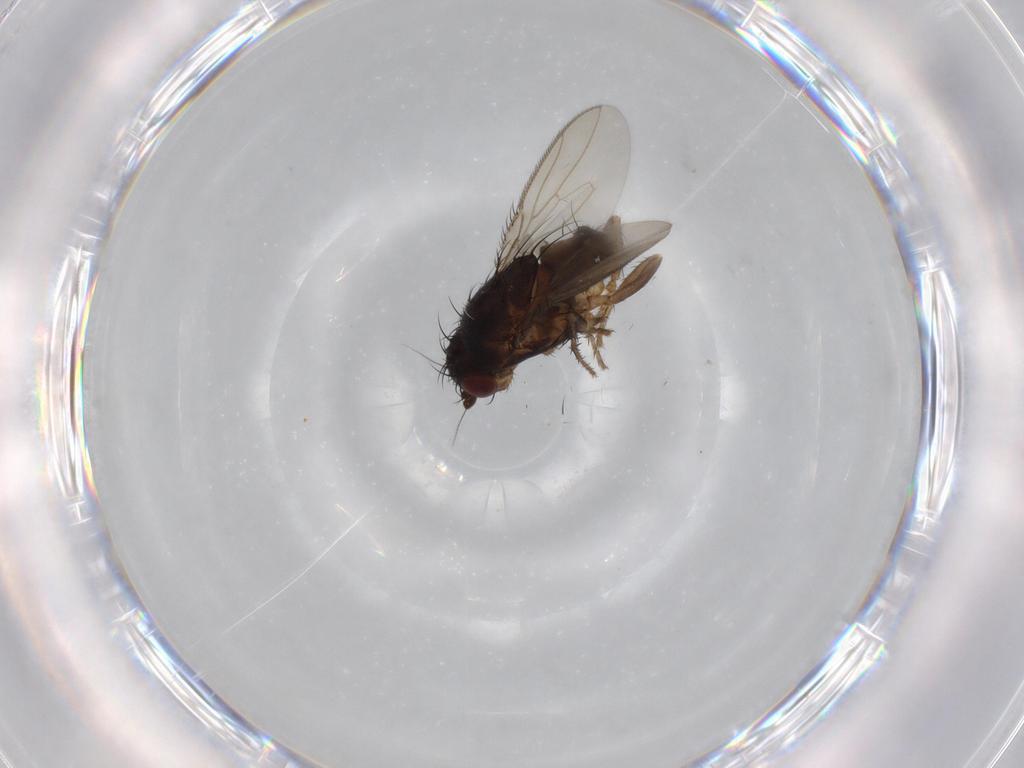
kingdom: Animalia
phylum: Arthropoda
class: Insecta
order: Diptera
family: Sphaeroceridae
